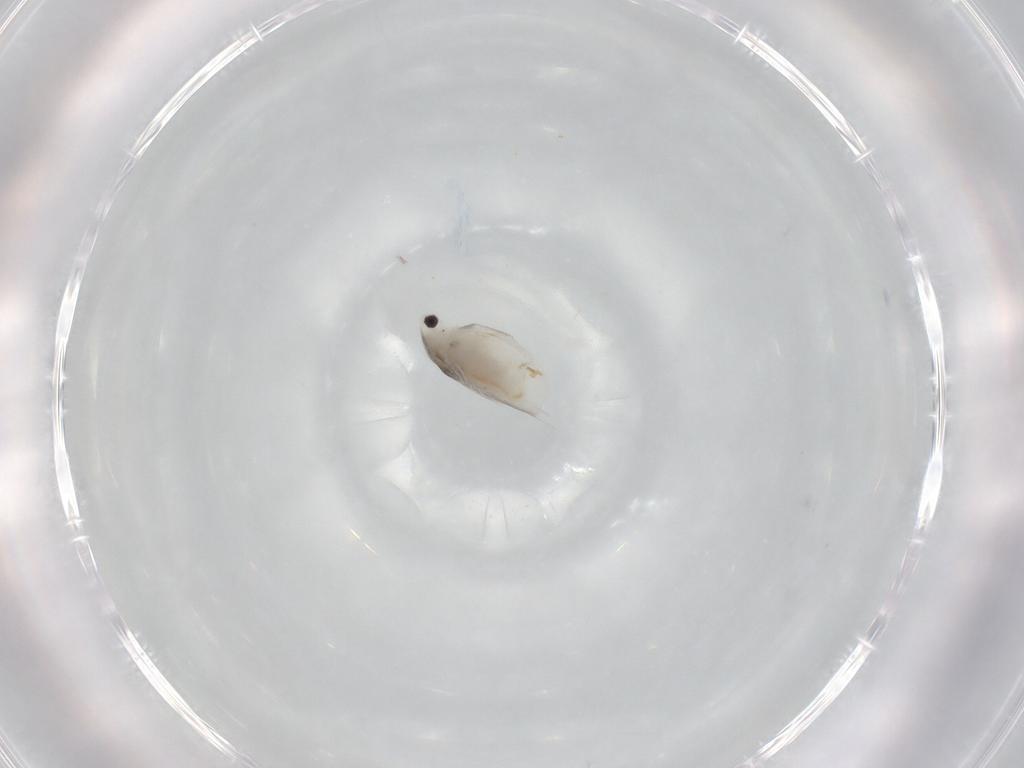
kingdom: Animalia
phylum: Arthropoda
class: Branchiopoda
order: Diplostraca
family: Daphniidae
